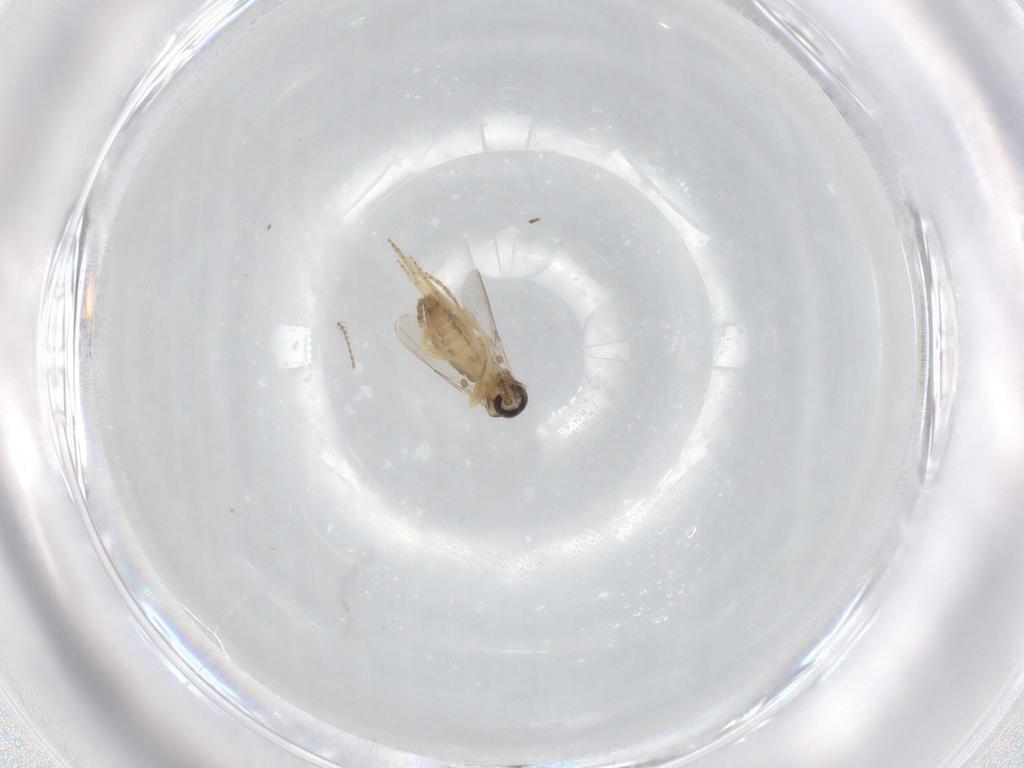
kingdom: Animalia
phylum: Arthropoda
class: Insecta
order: Diptera
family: Ceratopogonidae
